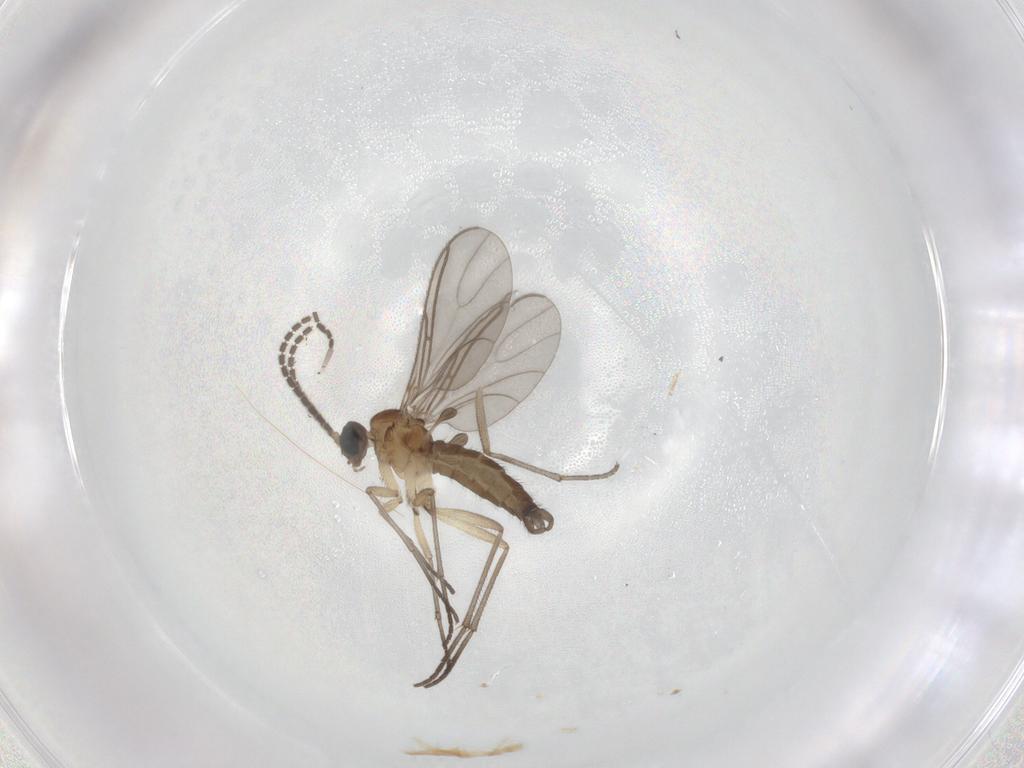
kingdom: Animalia
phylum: Arthropoda
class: Insecta
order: Diptera
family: Sciaridae
